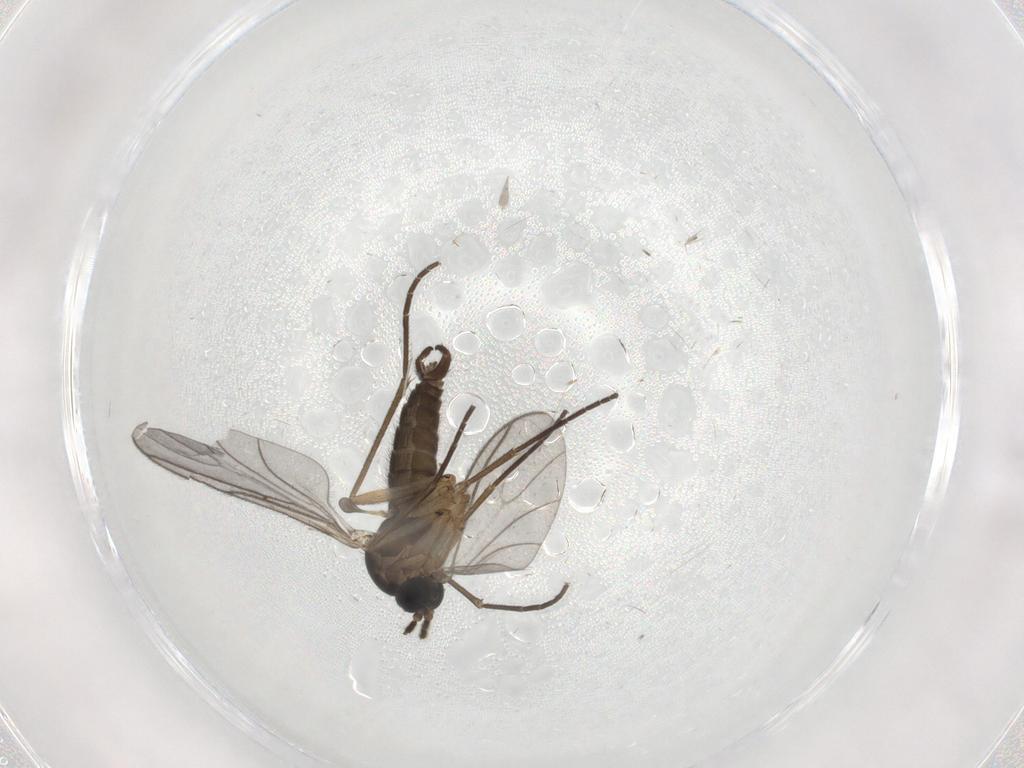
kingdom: Animalia
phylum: Arthropoda
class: Insecta
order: Diptera
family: Sciaridae
